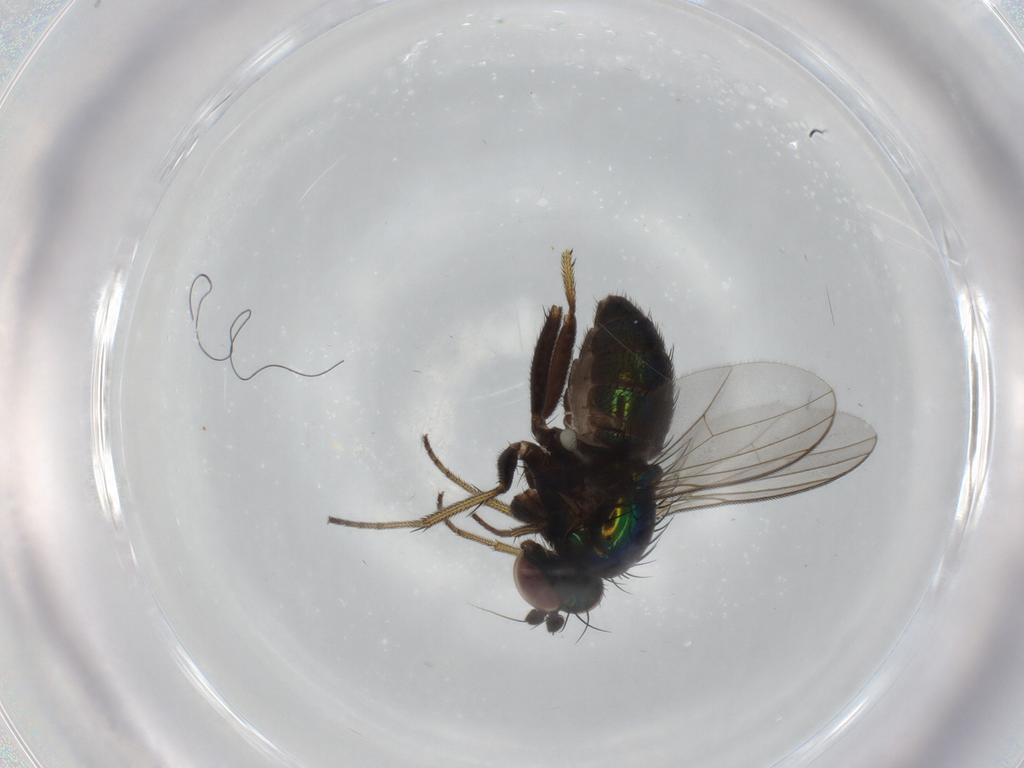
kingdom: Animalia
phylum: Arthropoda
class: Insecta
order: Diptera
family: Dolichopodidae
